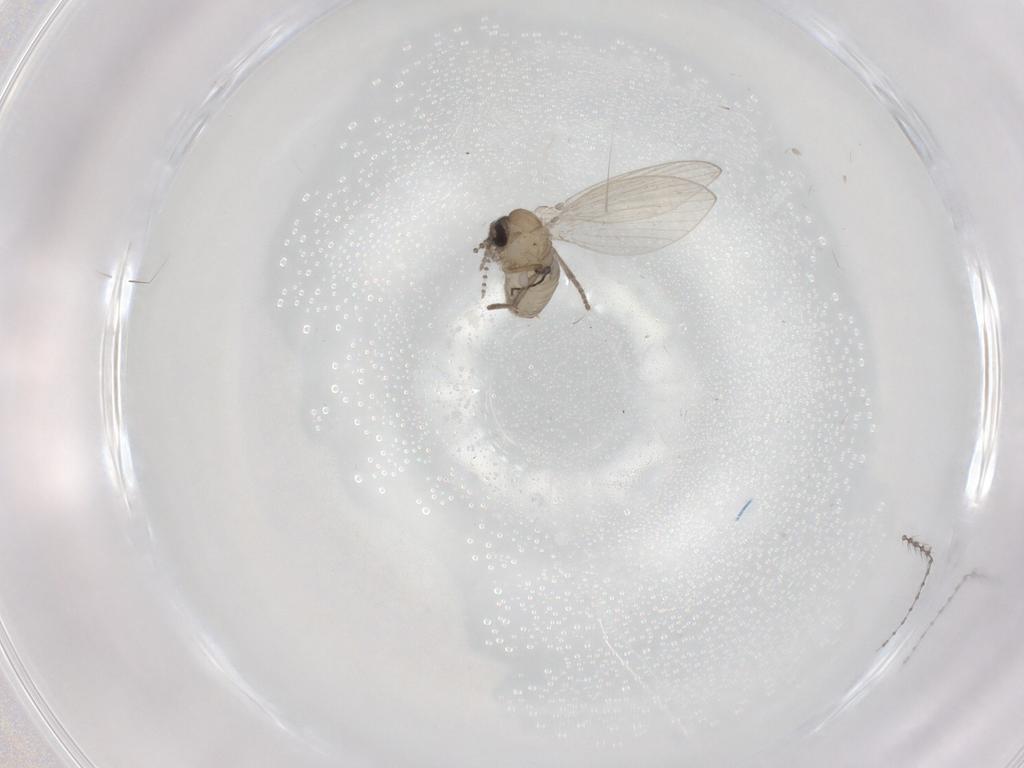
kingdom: Animalia
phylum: Arthropoda
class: Insecta
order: Diptera
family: Psychodidae
